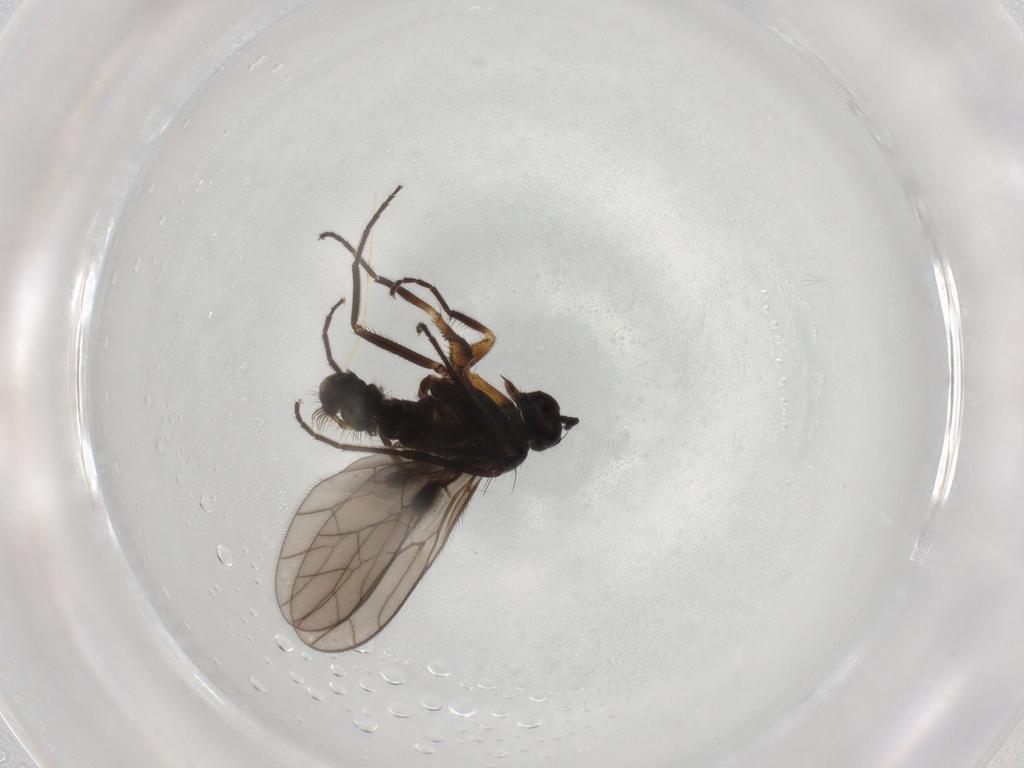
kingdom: Animalia
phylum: Arthropoda
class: Insecta
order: Diptera
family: Empididae
